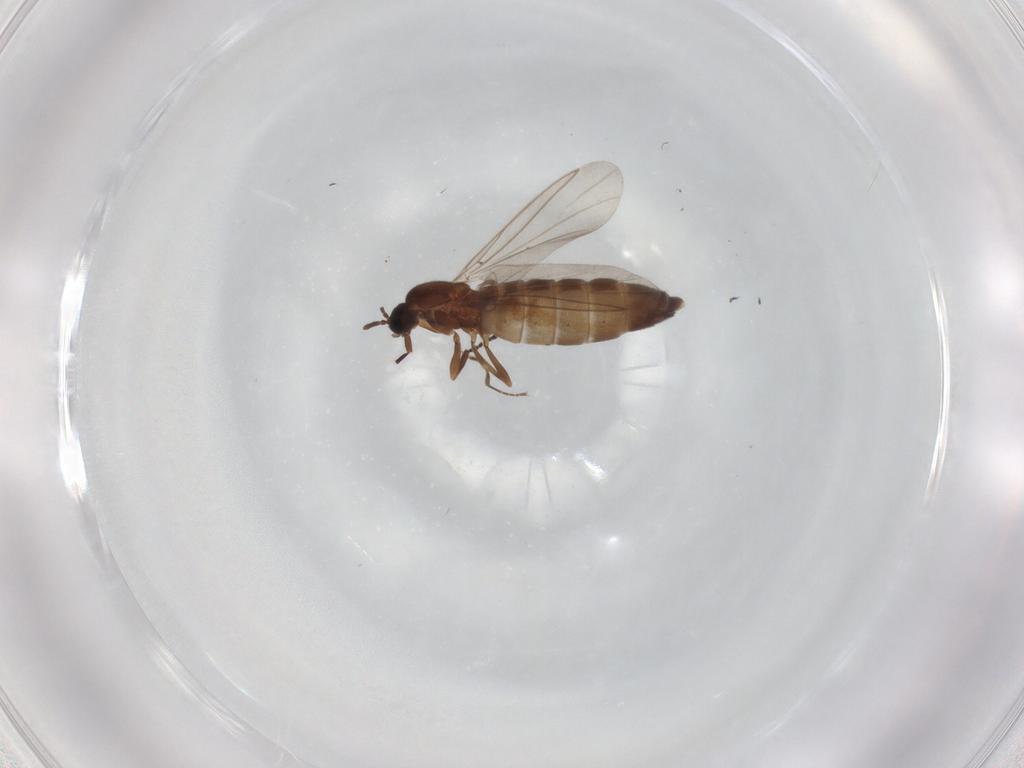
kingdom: Animalia
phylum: Arthropoda
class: Insecta
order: Diptera
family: Scatopsidae
